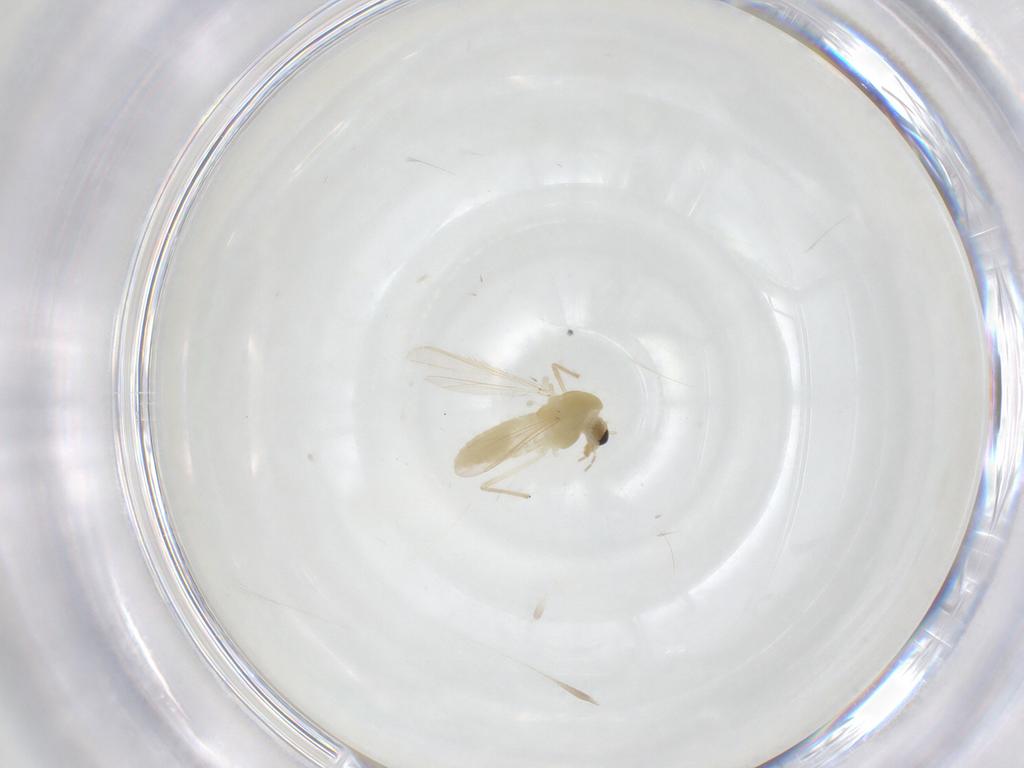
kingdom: Animalia
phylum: Arthropoda
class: Insecta
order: Diptera
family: Chironomidae
